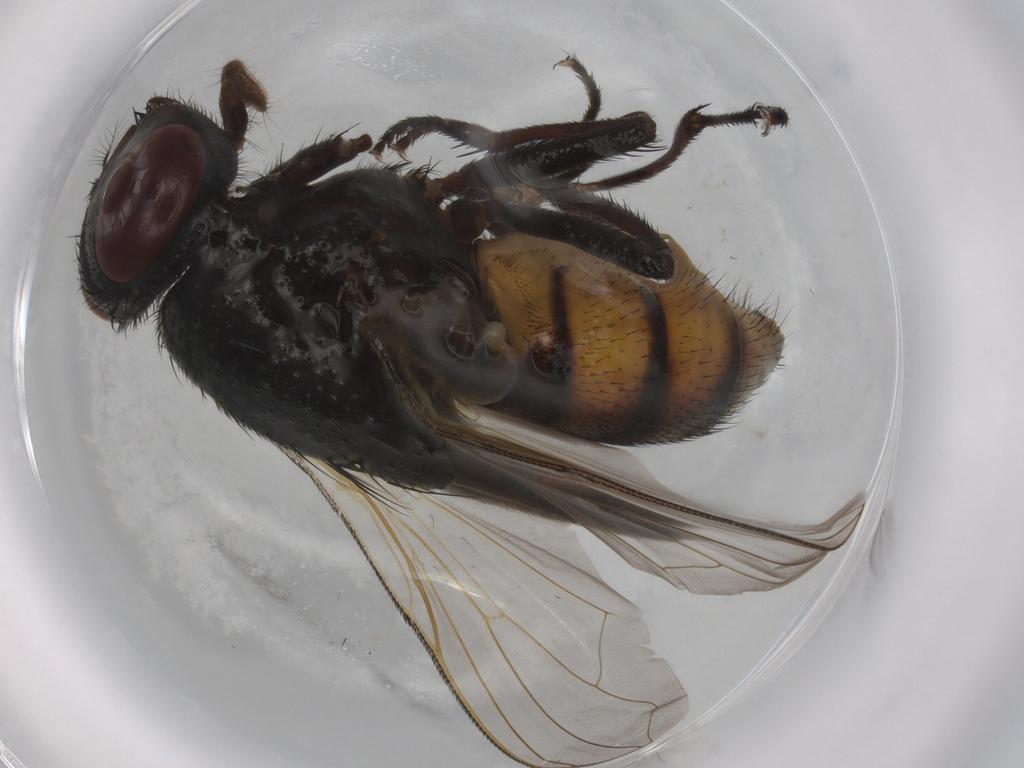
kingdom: Animalia
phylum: Arthropoda
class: Insecta
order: Diptera
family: Muscidae
